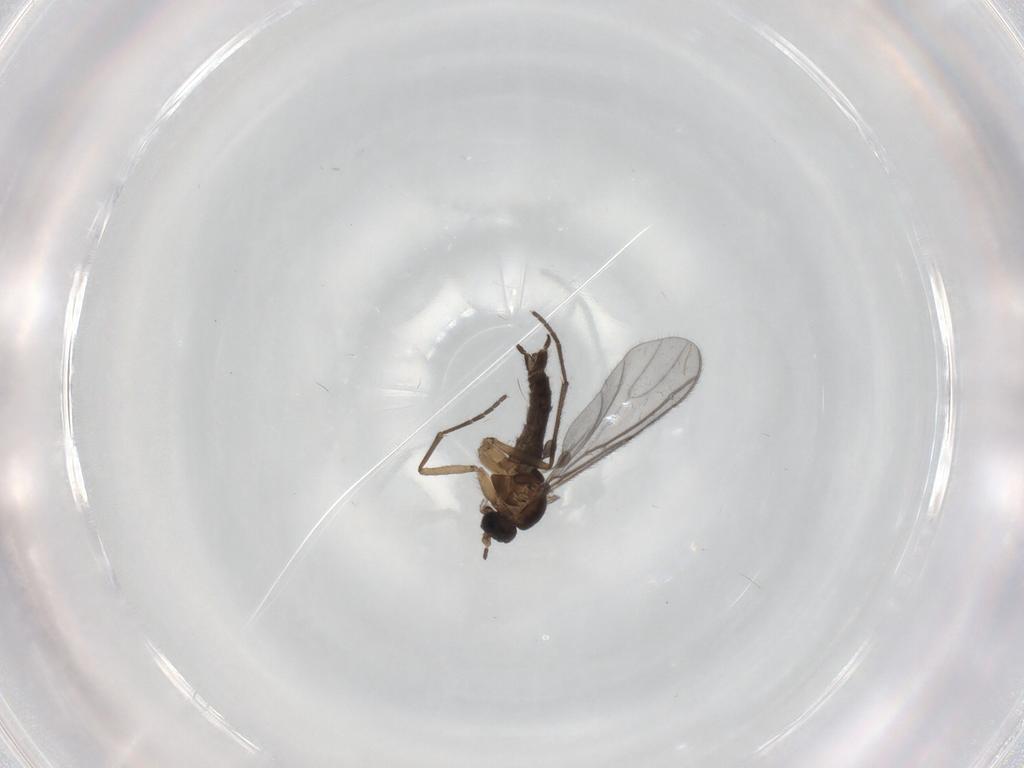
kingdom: Animalia
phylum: Arthropoda
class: Insecta
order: Diptera
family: Sciaridae
